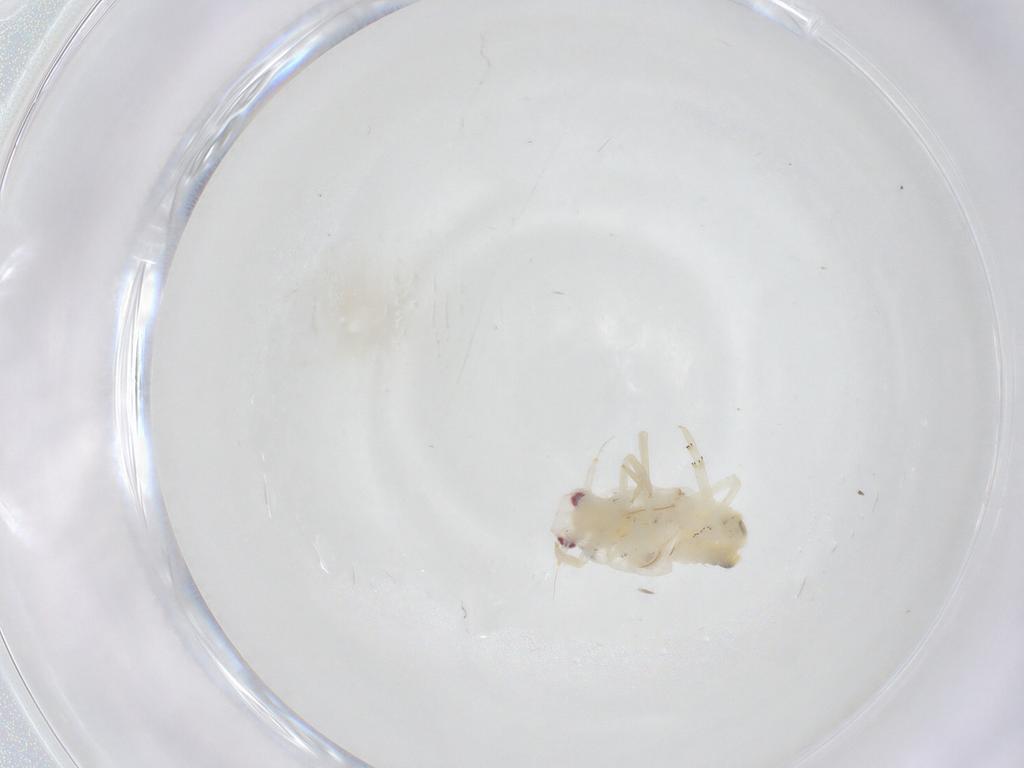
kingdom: Animalia
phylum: Arthropoda
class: Insecta
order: Hemiptera
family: Flatidae
